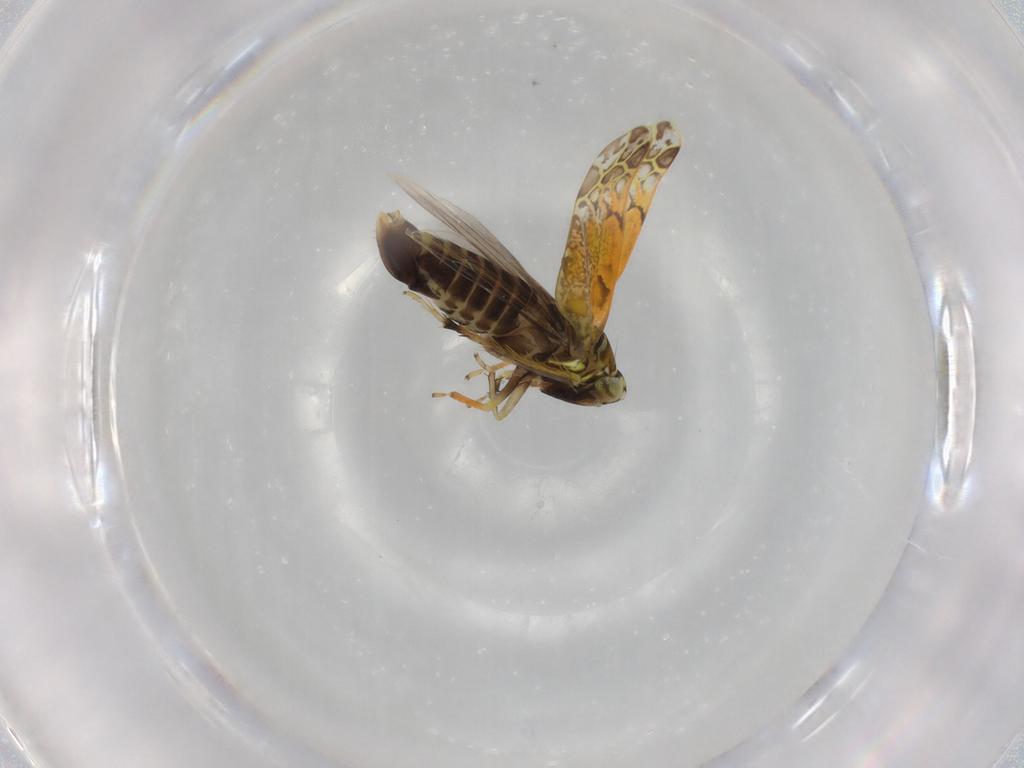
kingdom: Animalia
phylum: Arthropoda
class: Insecta
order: Hemiptera
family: Cicadellidae
